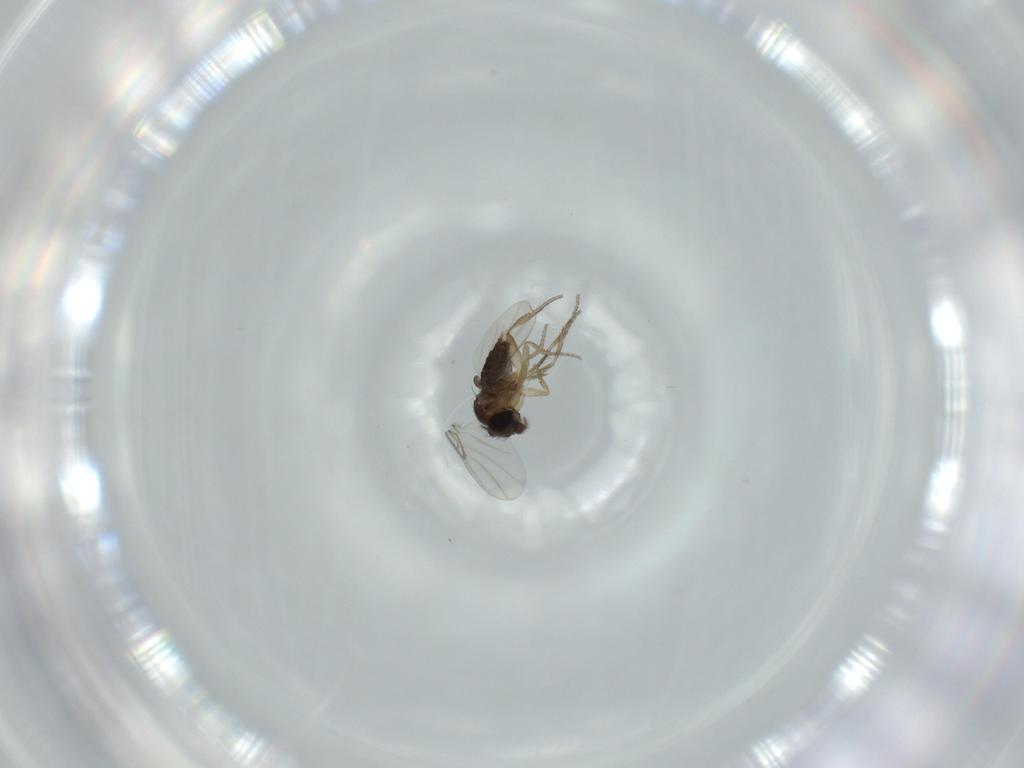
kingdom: Animalia
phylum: Arthropoda
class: Insecta
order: Diptera
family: Phoridae
